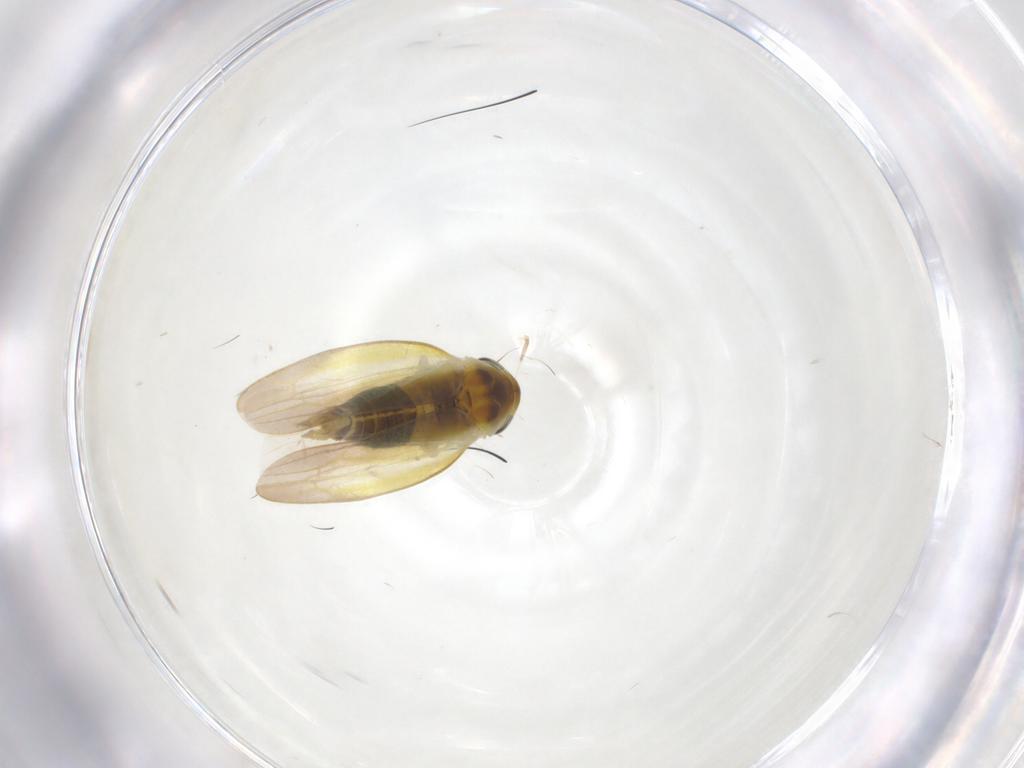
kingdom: Animalia
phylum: Arthropoda
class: Insecta
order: Hemiptera
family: Cicadellidae
